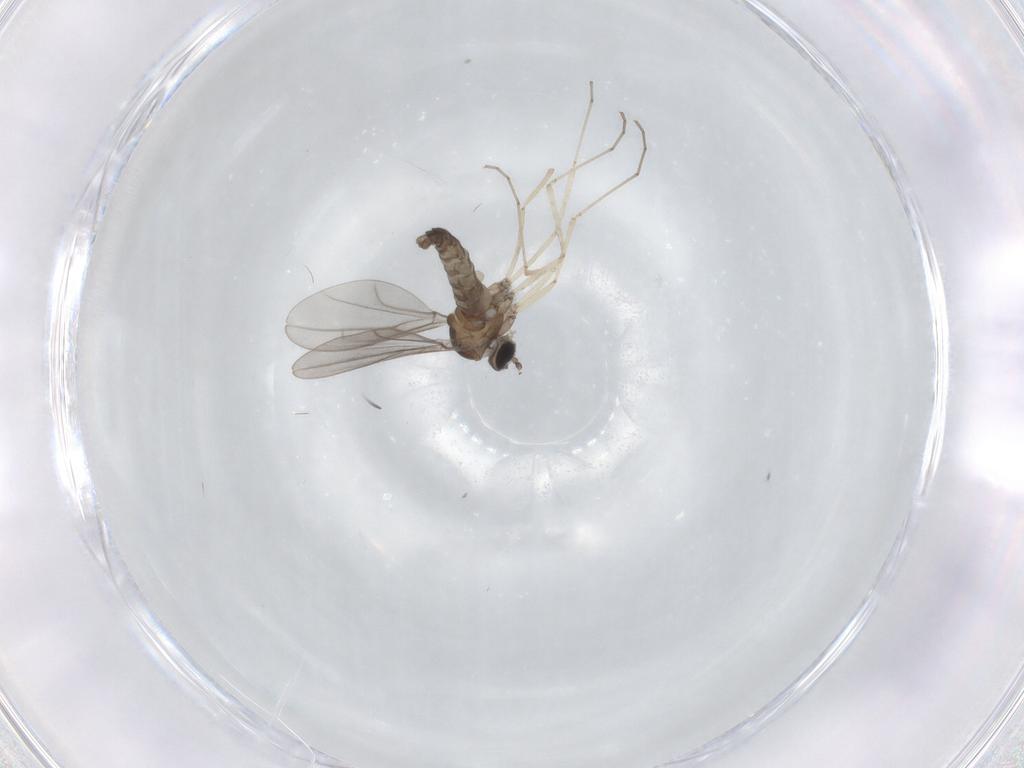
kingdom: Animalia
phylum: Arthropoda
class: Insecta
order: Diptera
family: Cecidomyiidae
